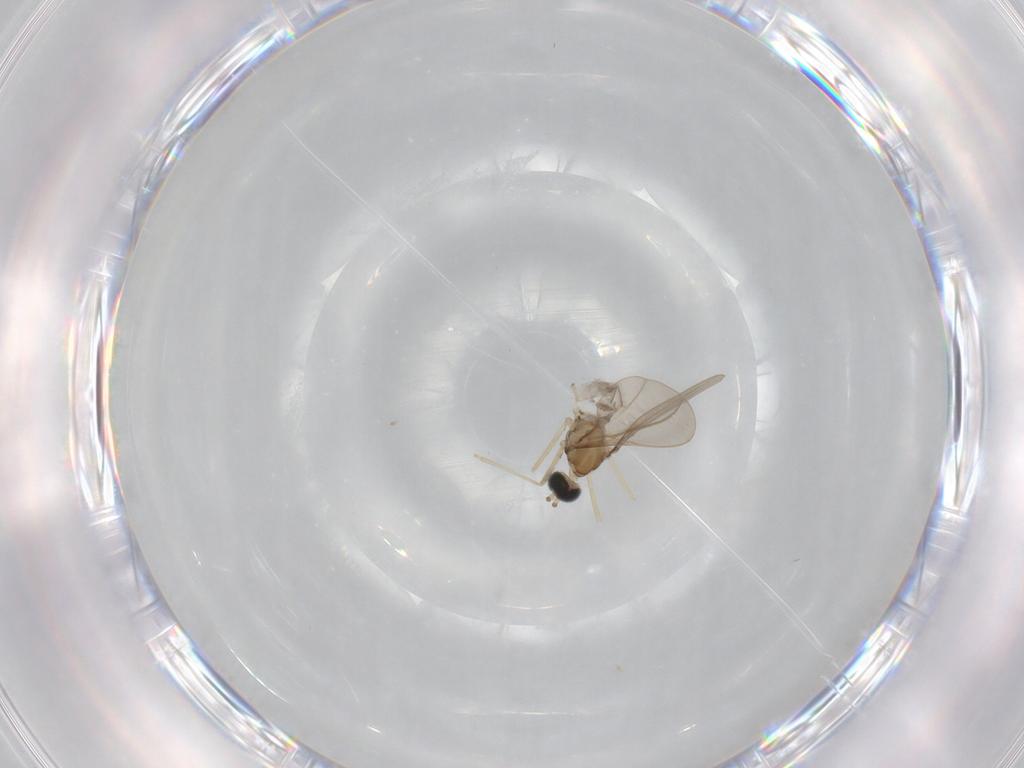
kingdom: Animalia
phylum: Arthropoda
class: Insecta
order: Diptera
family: Cecidomyiidae
